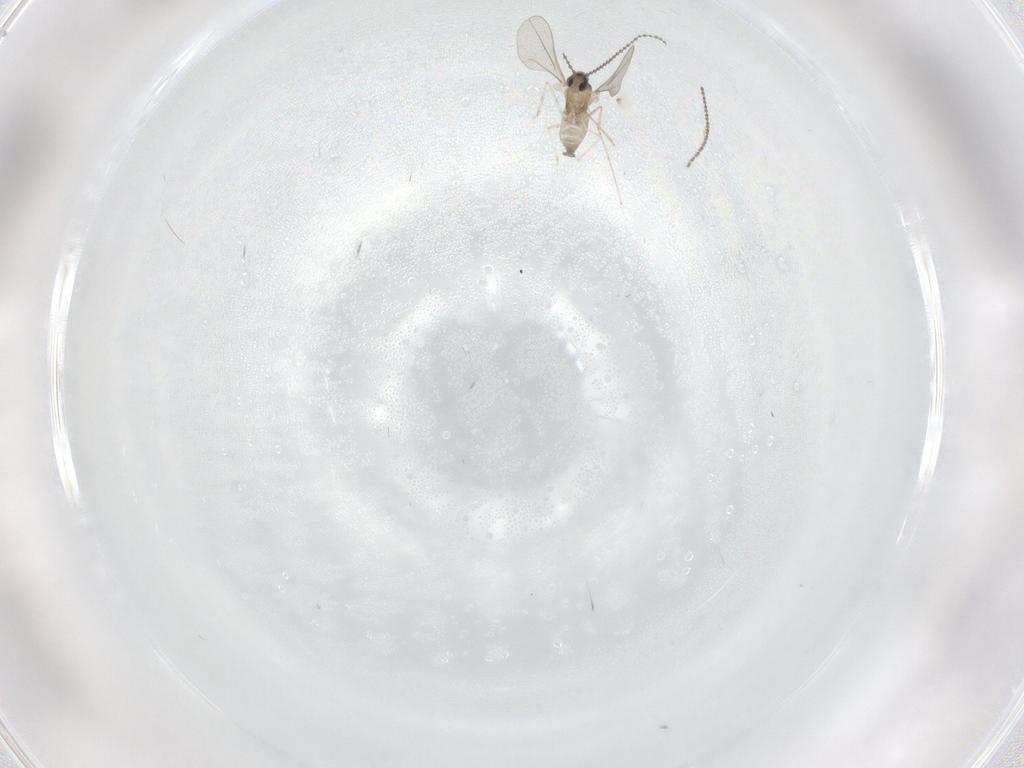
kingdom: Animalia
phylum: Arthropoda
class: Insecta
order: Diptera
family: Cecidomyiidae
